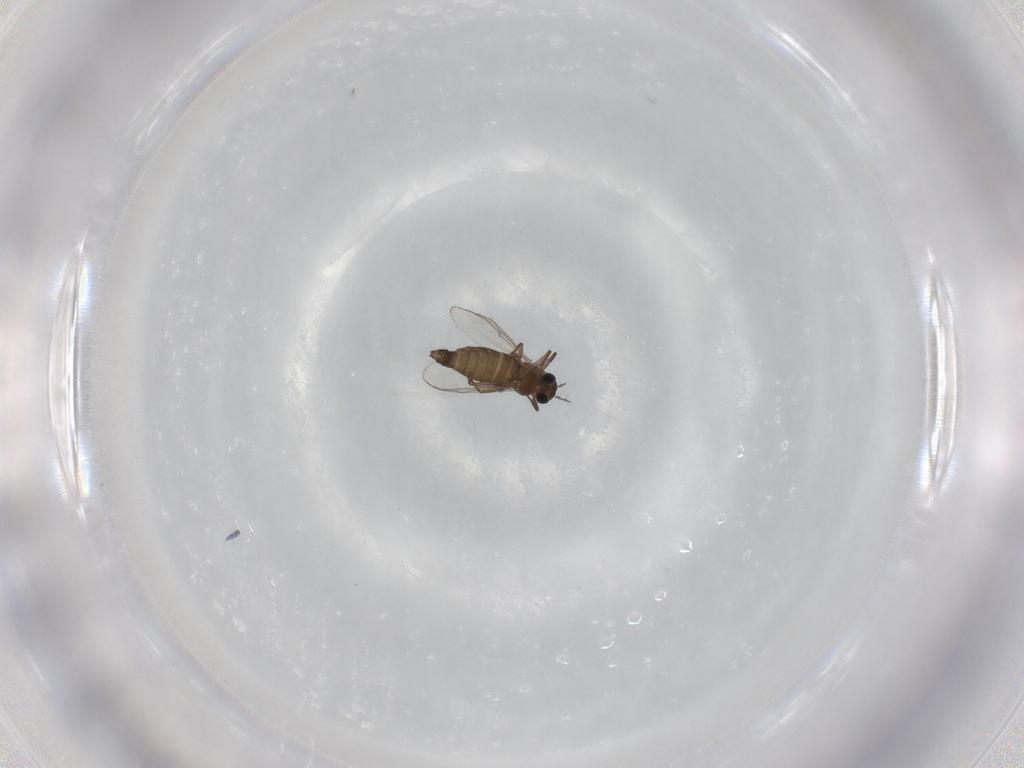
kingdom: Animalia
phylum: Arthropoda
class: Insecta
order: Diptera
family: Chironomidae
